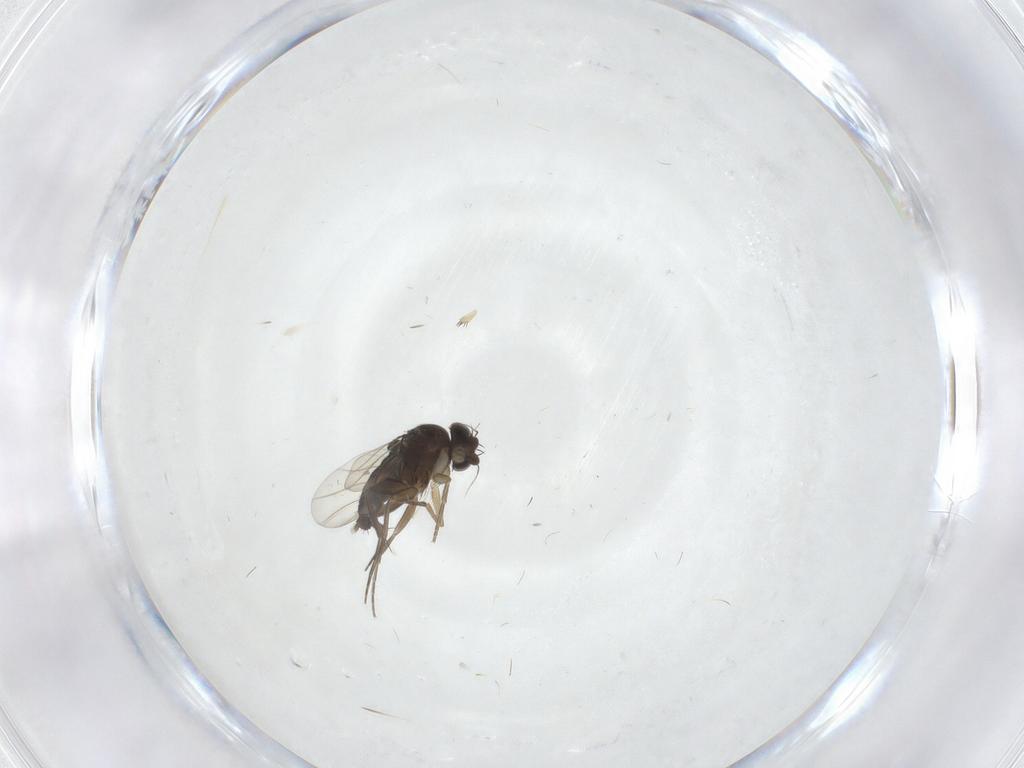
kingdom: Animalia
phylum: Arthropoda
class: Insecta
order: Diptera
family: Phoridae
